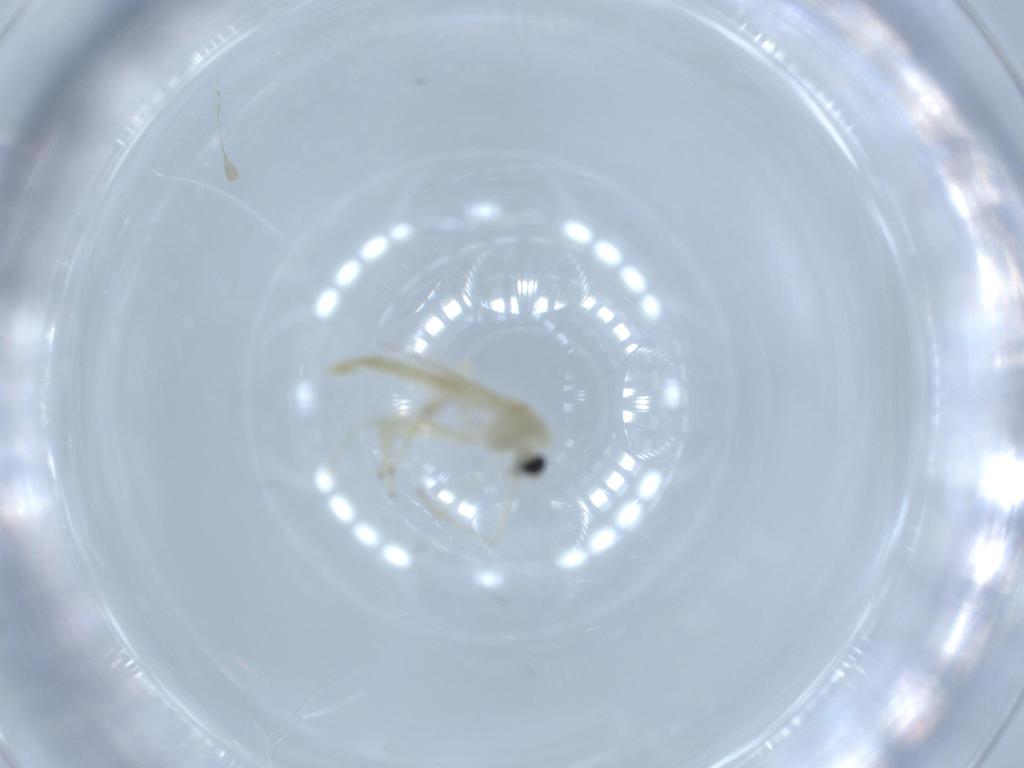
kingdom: Animalia
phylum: Arthropoda
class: Insecta
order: Diptera
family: Chironomidae
